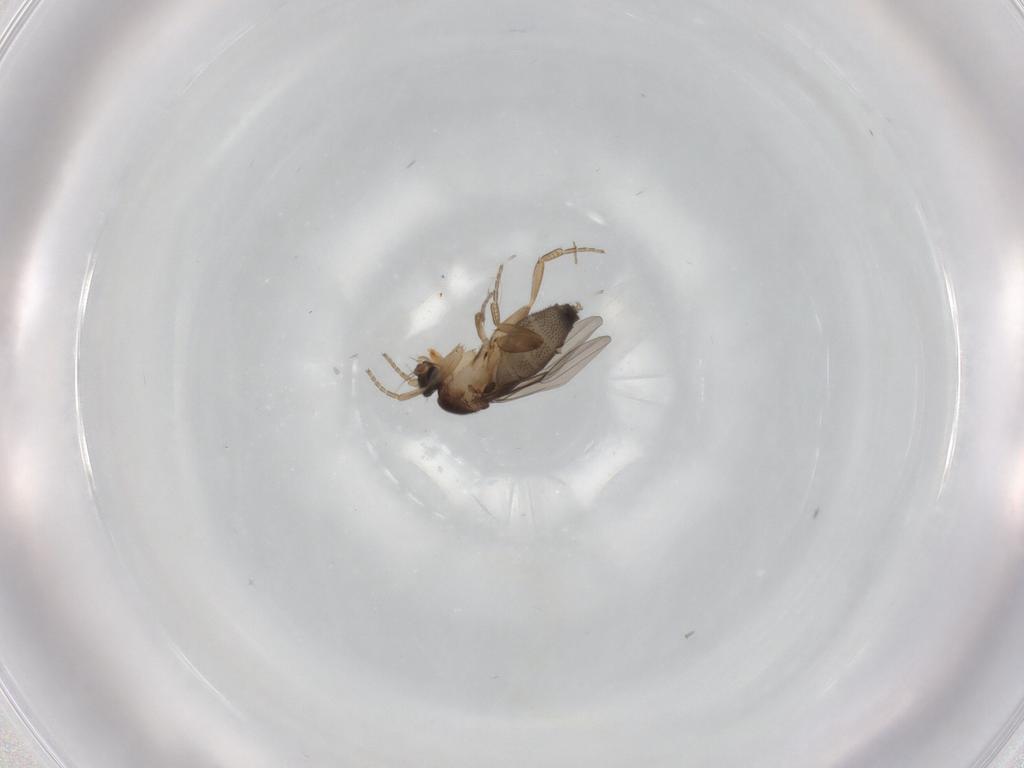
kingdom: Animalia
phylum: Arthropoda
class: Insecta
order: Diptera
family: Phoridae
